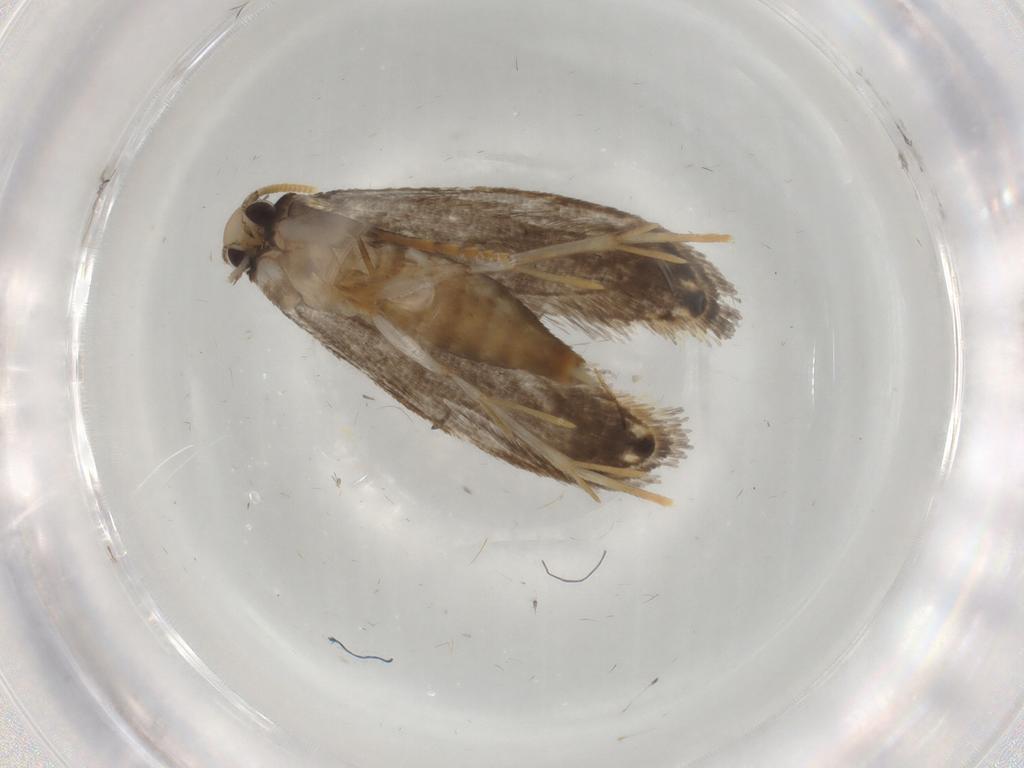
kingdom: Animalia
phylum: Arthropoda
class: Insecta
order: Lepidoptera
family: Tineidae
